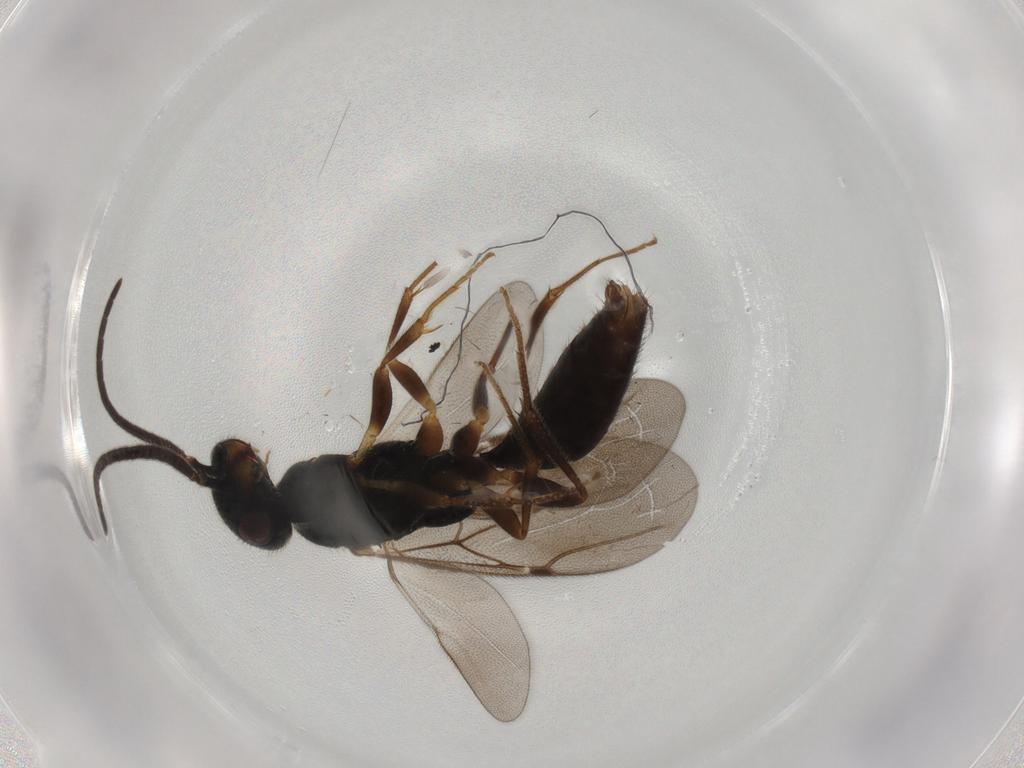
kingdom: Animalia
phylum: Arthropoda
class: Insecta
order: Hymenoptera
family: Bethylidae
